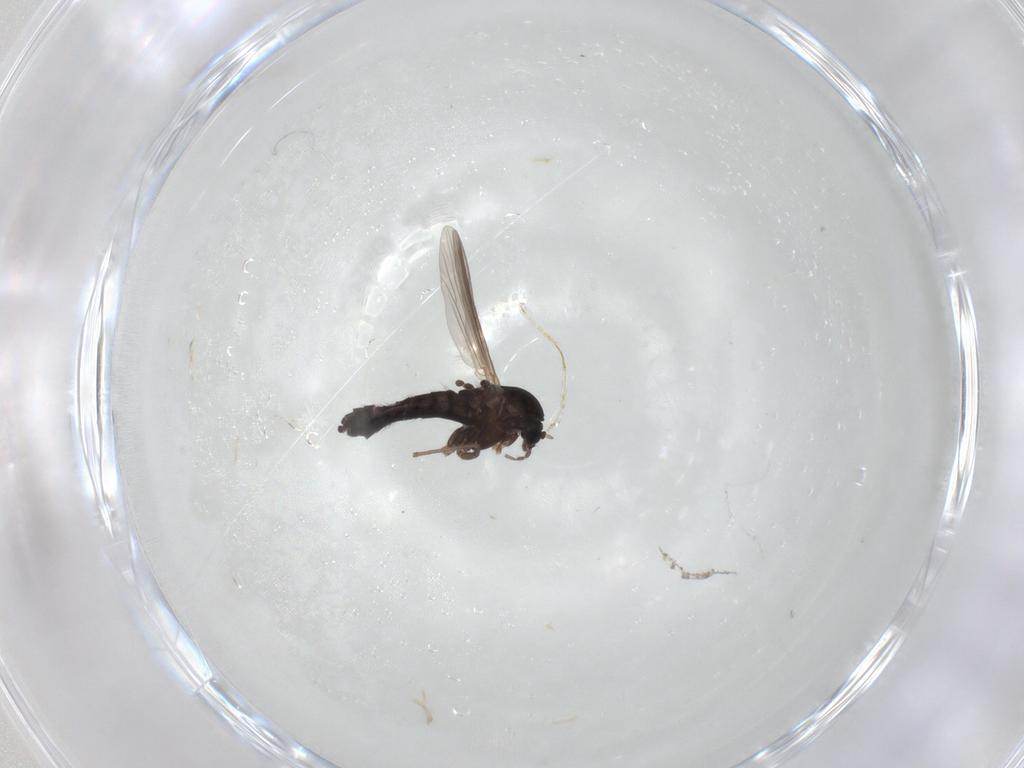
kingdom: Animalia
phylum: Arthropoda
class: Insecta
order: Diptera
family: Chironomidae
